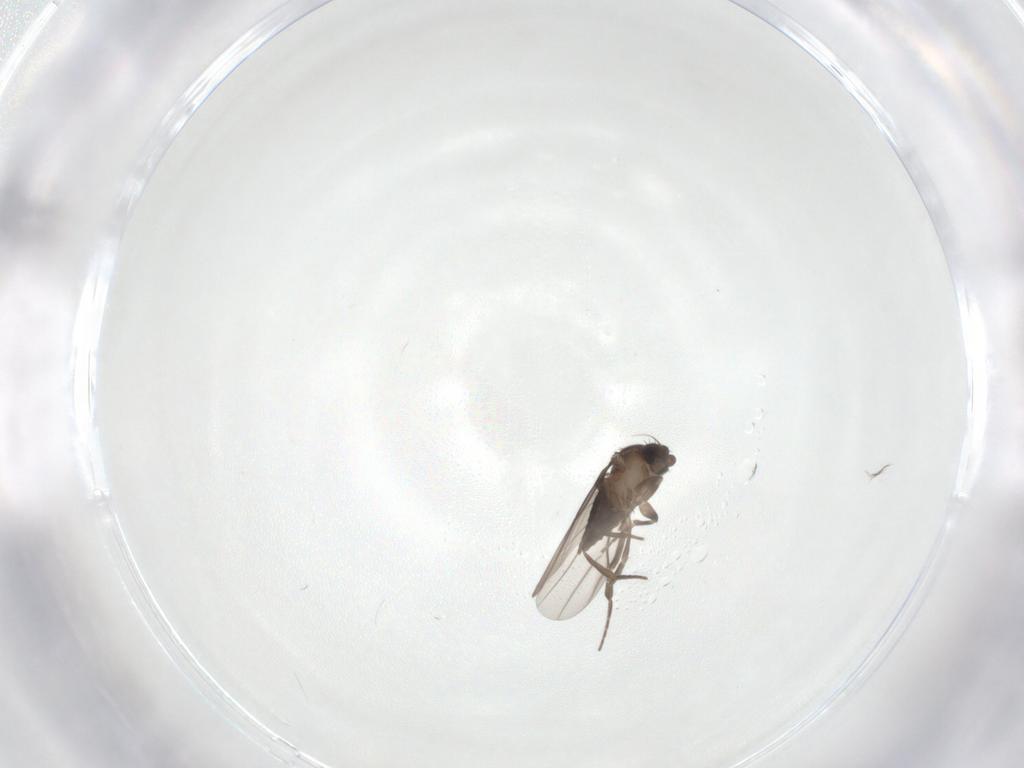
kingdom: Animalia
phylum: Arthropoda
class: Insecta
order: Diptera
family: Phoridae
